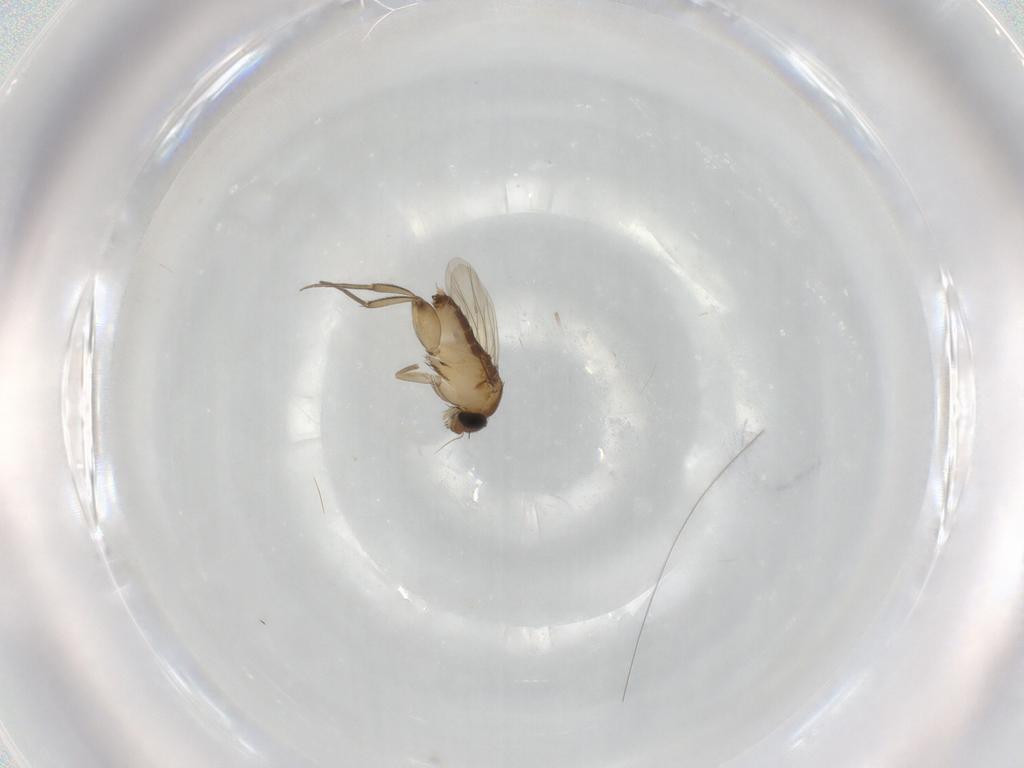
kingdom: Animalia
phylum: Arthropoda
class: Insecta
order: Diptera
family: Phoridae
